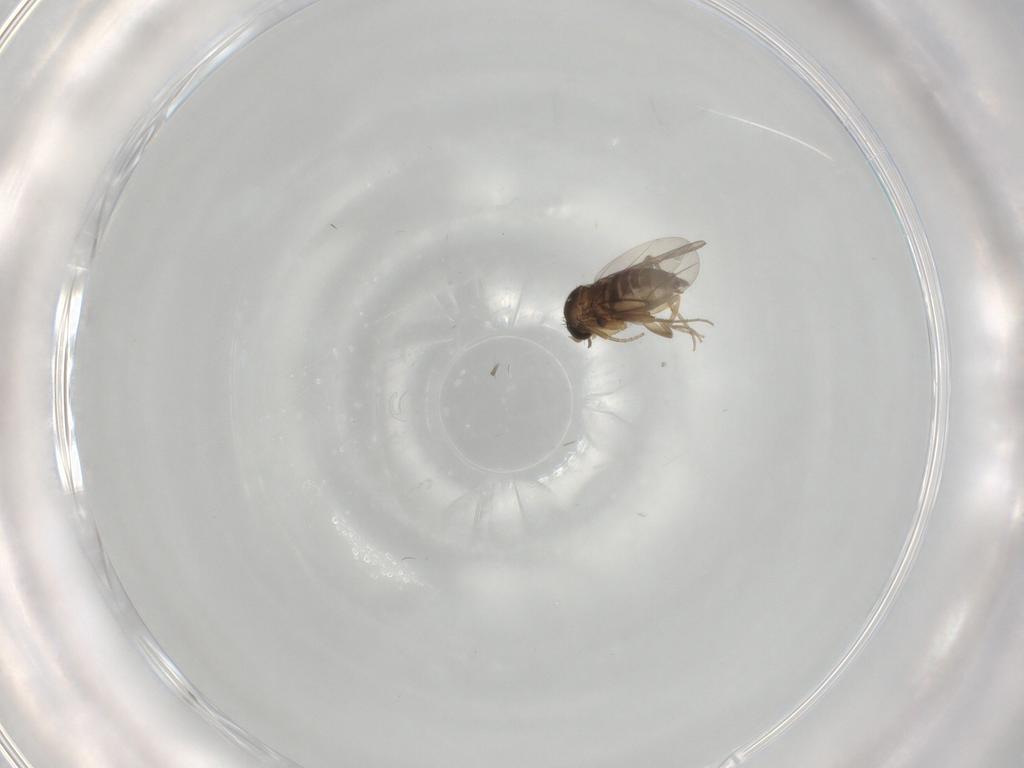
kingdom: Animalia
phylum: Arthropoda
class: Insecta
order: Diptera
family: Phoridae
